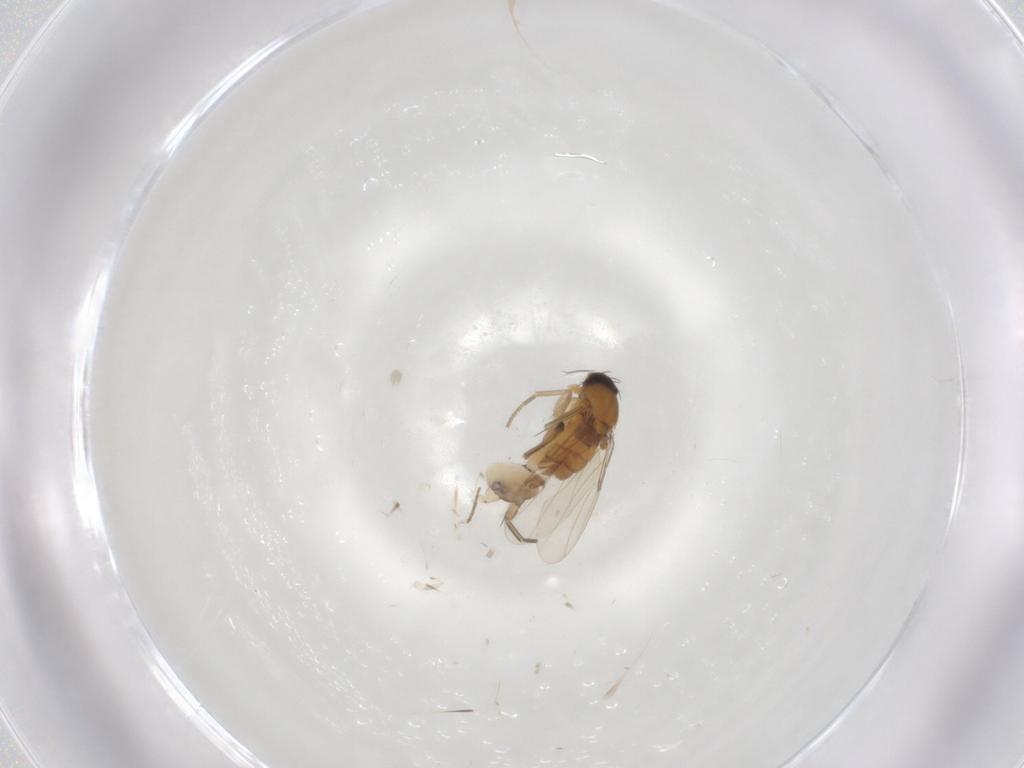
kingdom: Animalia
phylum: Arthropoda
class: Insecta
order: Diptera
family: Phoridae
